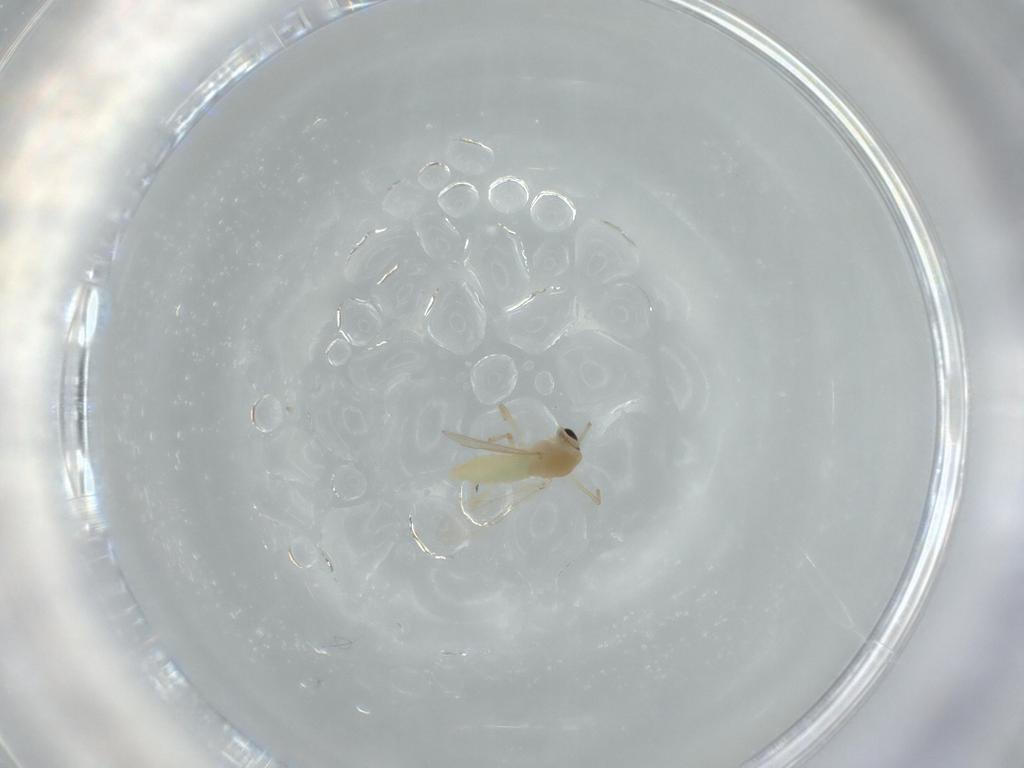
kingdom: Animalia
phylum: Arthropoda
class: Insecta
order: Diptera
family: Chironomidae
